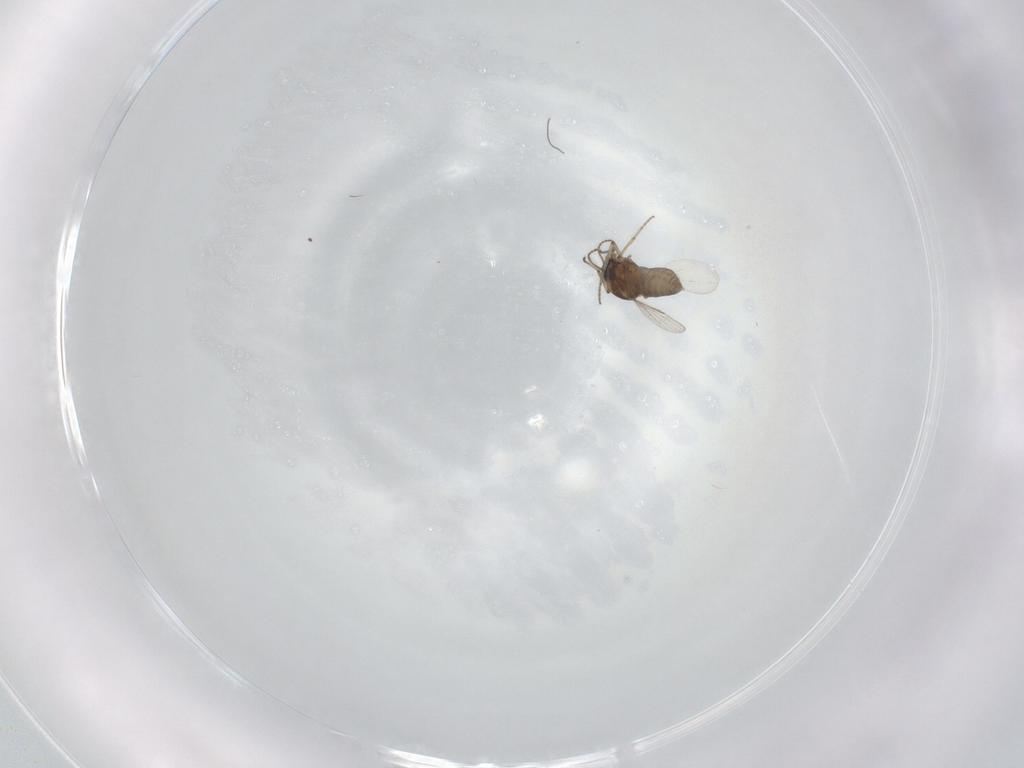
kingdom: Animalia
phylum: Arthropoda
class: Insecta
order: Diptera
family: Ceratopogonidae
